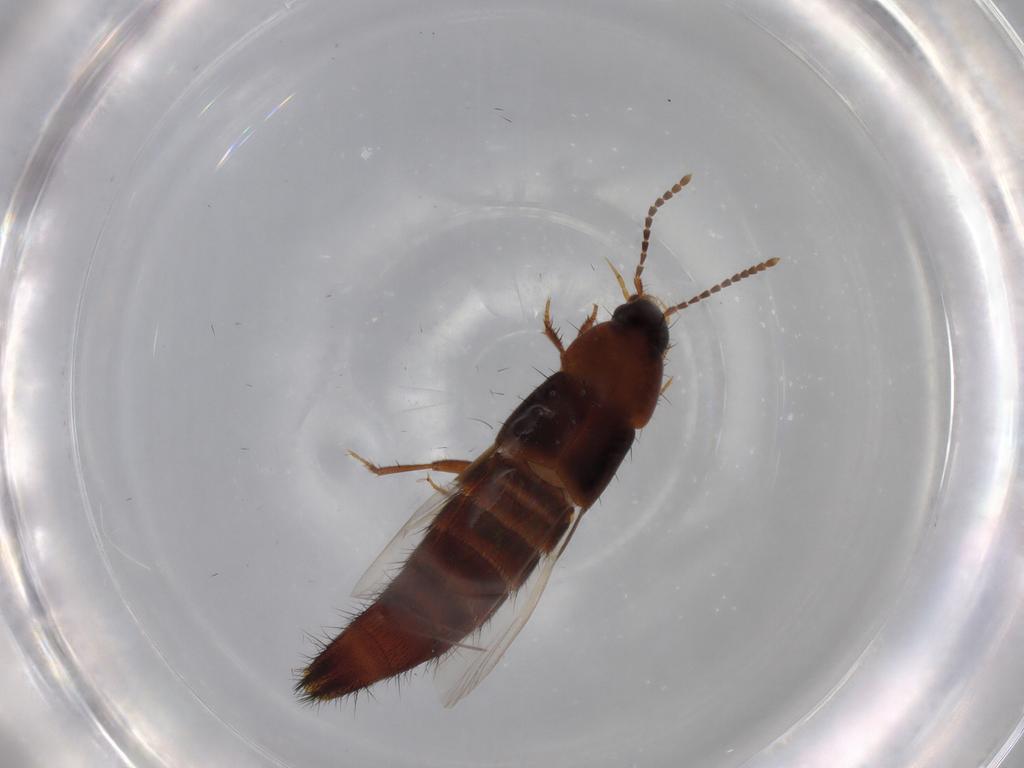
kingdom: Animalia
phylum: Arthropoda
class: Insecta
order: Coleoptera
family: Staphylinidae
